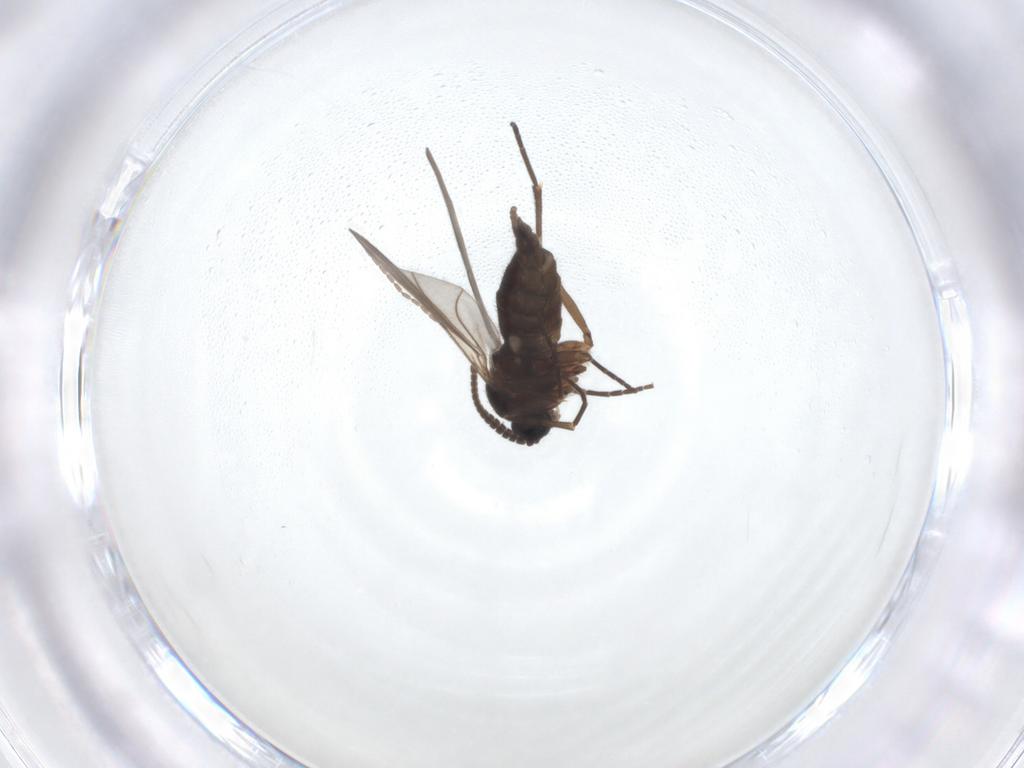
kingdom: Animalia
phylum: Arthropoda
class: Insecta
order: Diptera
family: Sciaridae
